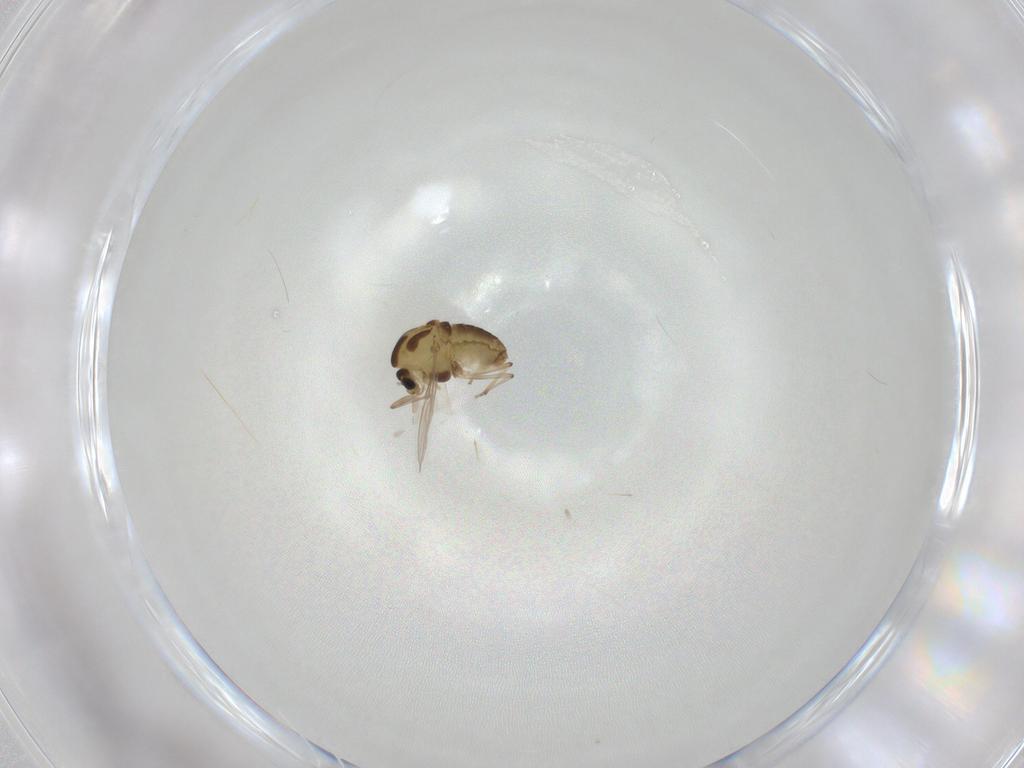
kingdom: Animalia
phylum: Arthropoda
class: Insecta
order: Diptera
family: Chironomidae
